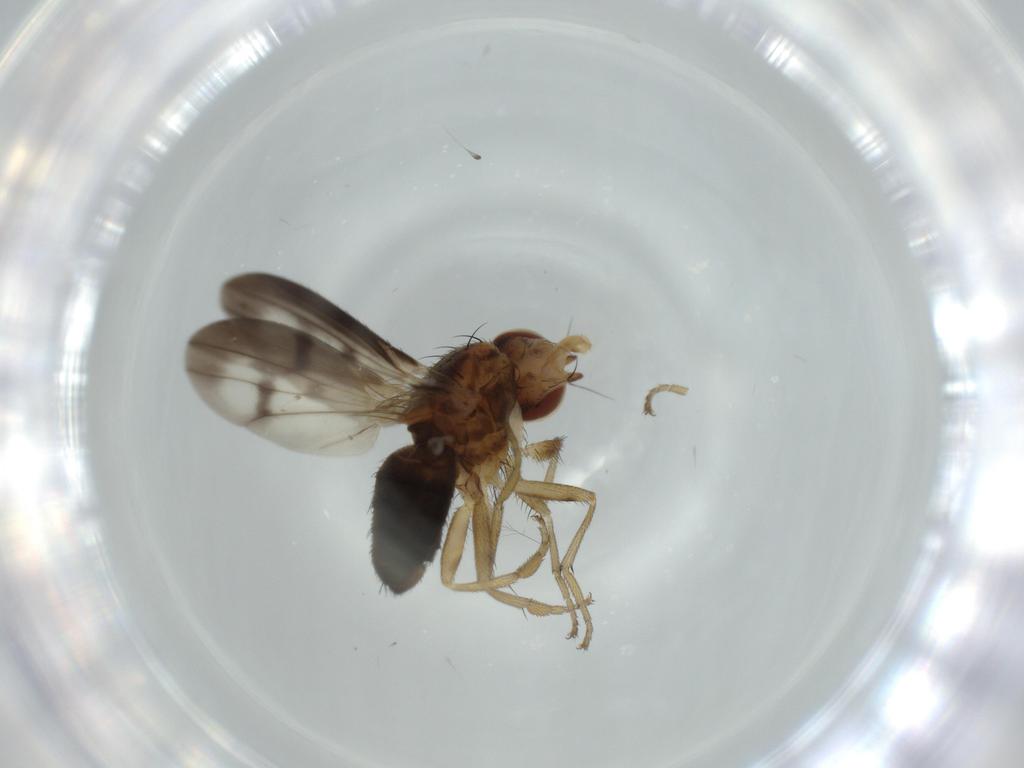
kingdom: Animalia
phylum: Arthropoda
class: Insecta
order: Diptera
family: Heleomyzidae
